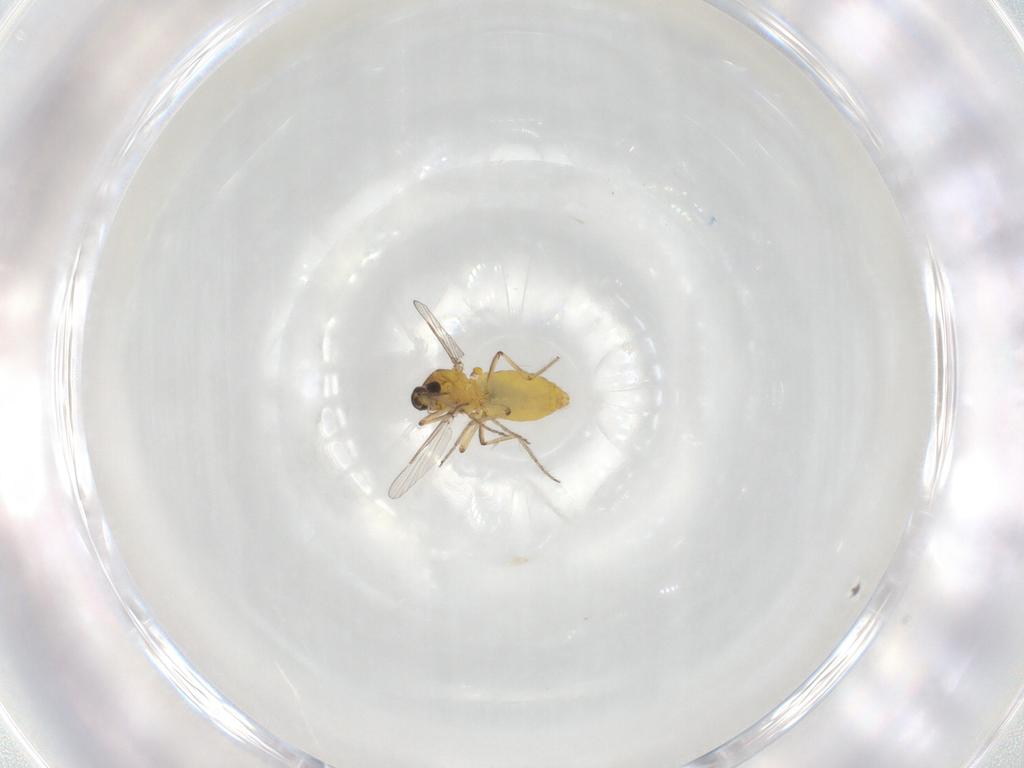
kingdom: Animalia
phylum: Arthropoda
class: Insecta
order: Diptera
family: Ceratopogonidae
